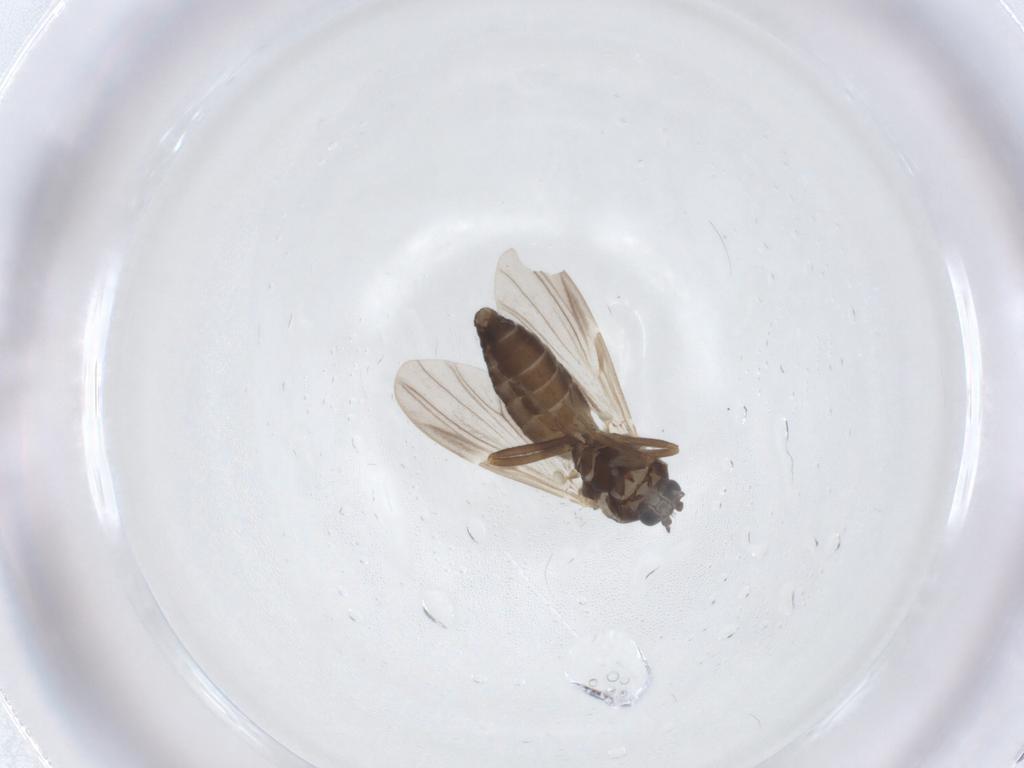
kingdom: Animalia
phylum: Arthropoda
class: Insecta
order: Diptera
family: Ceratopogonidae
